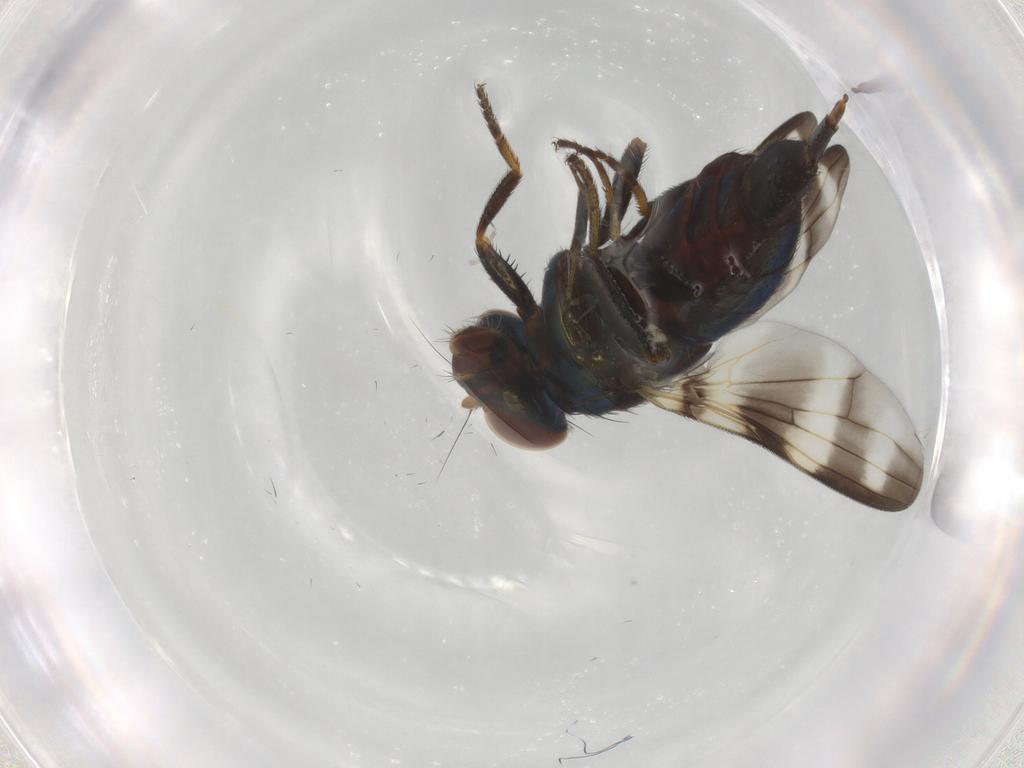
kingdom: Animalia
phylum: Arthropoda
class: Insecta
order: Diptera
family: Ulidiidae
